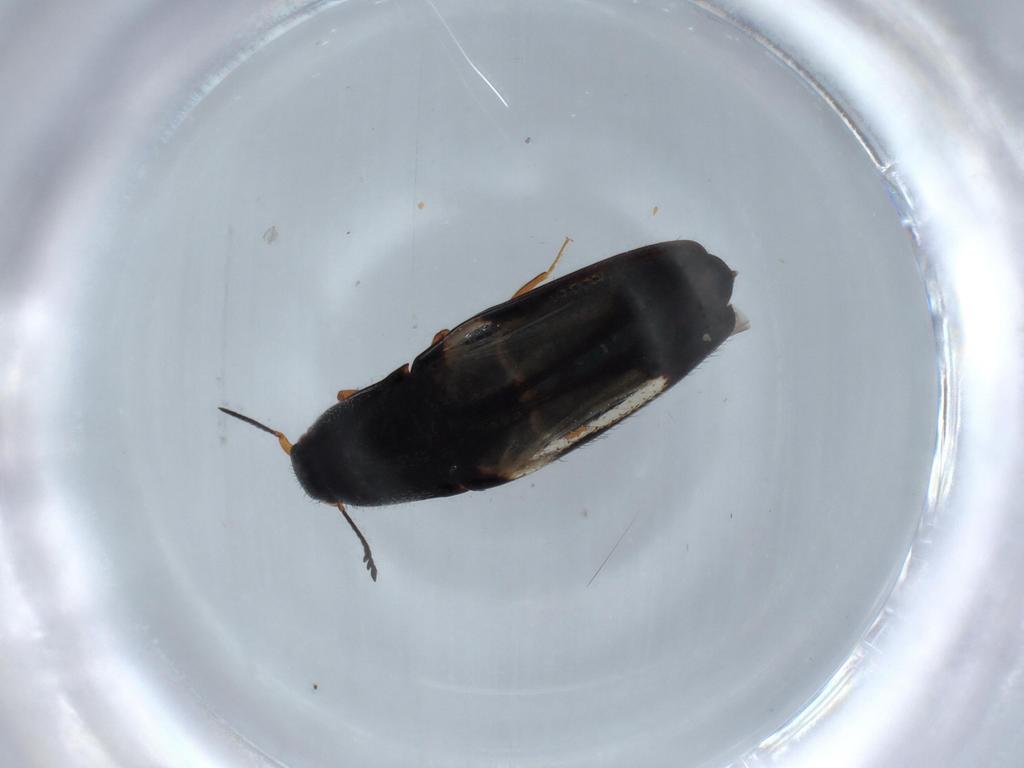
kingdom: Animalia
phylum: Arthropoda
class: Insecta
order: Coleoptera
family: Elateridae
